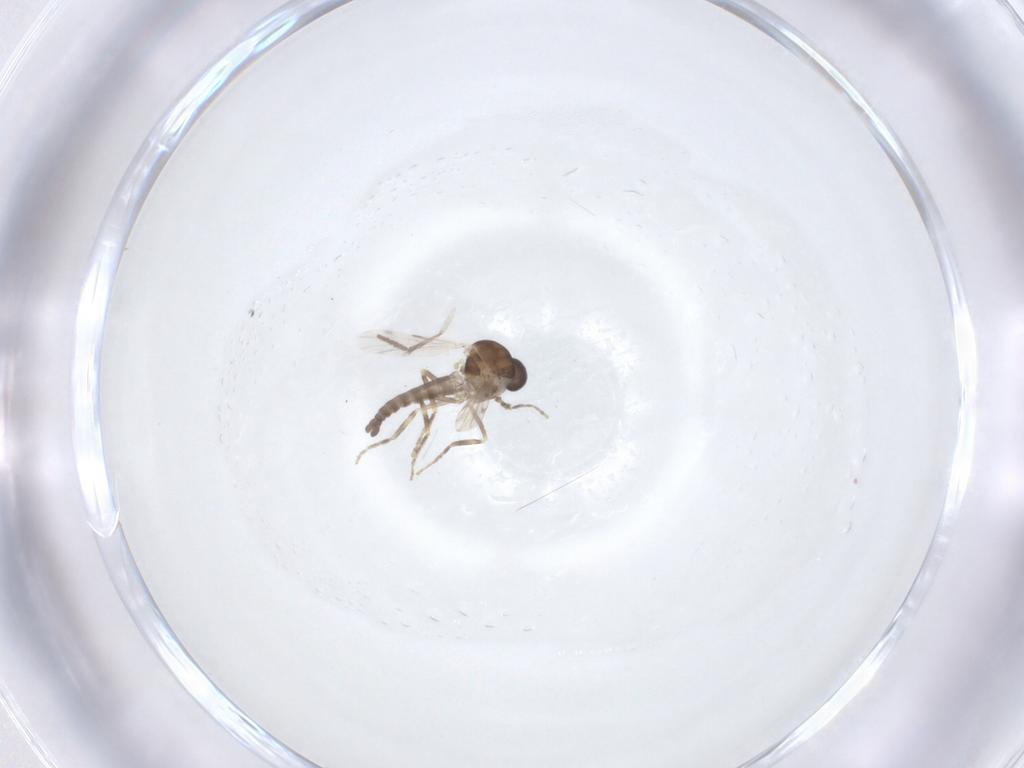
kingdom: Animalia
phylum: Arthropoda
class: Insecta
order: Diptera
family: Ceratopogonidae
